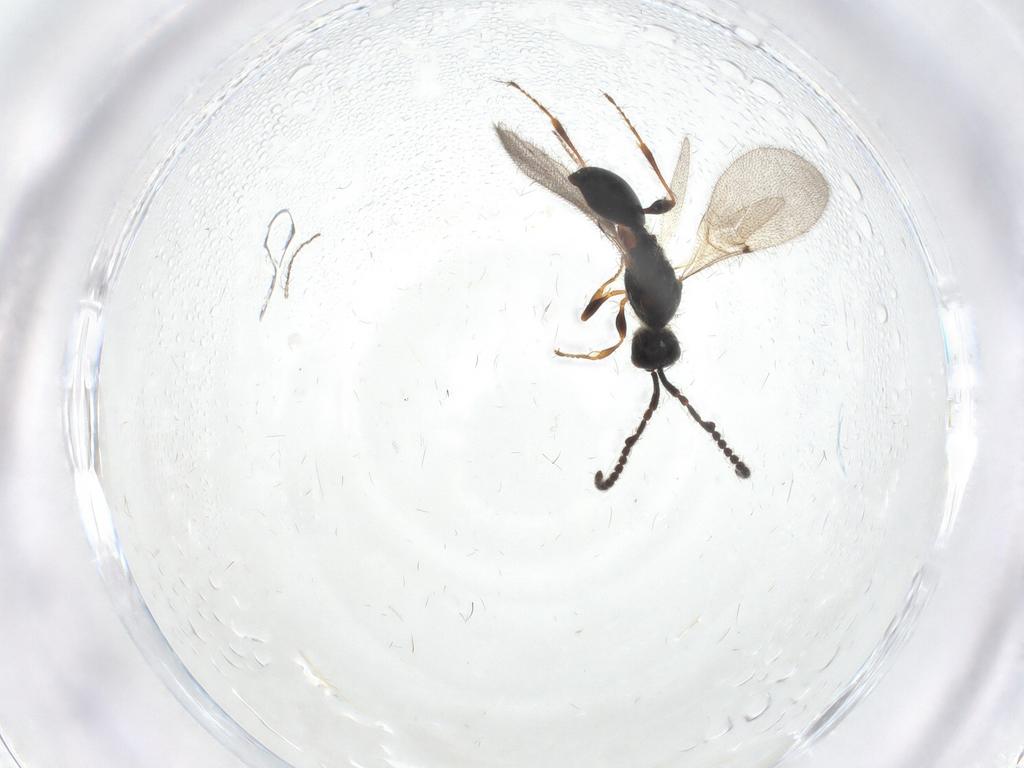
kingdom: Animalia
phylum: Arthropoda
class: Insecta
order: Hymenoptera
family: Diapriidae
